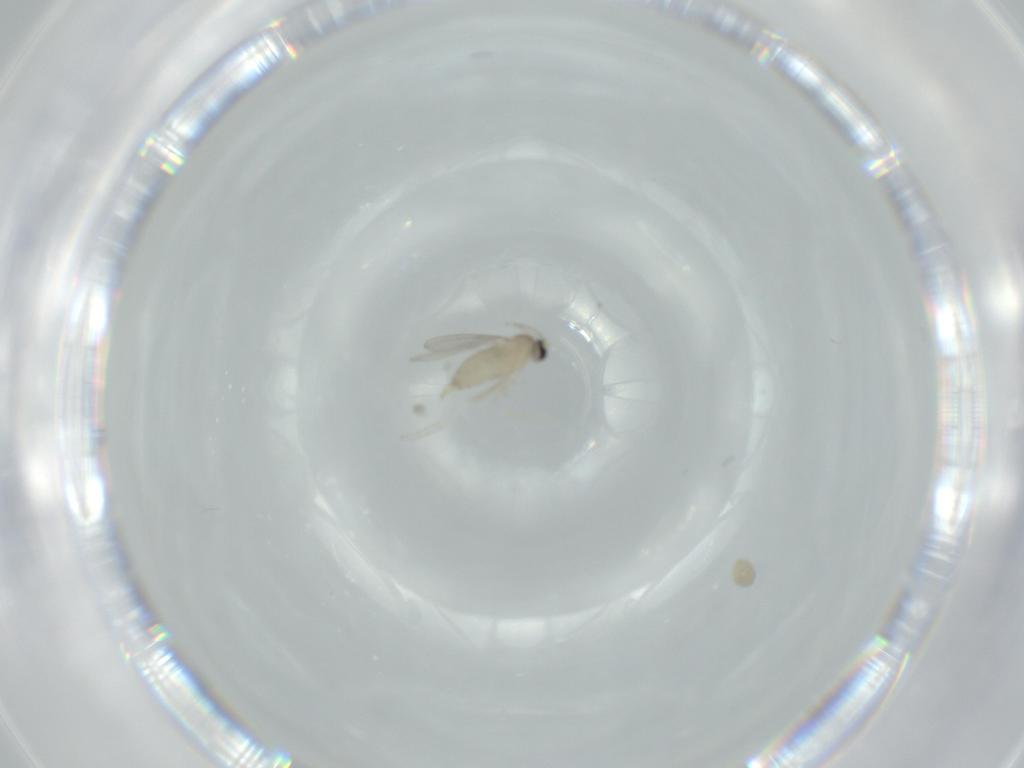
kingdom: Animalia
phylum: Arthropoda
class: Insecta
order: Diptera
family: Cecidomyiidae
